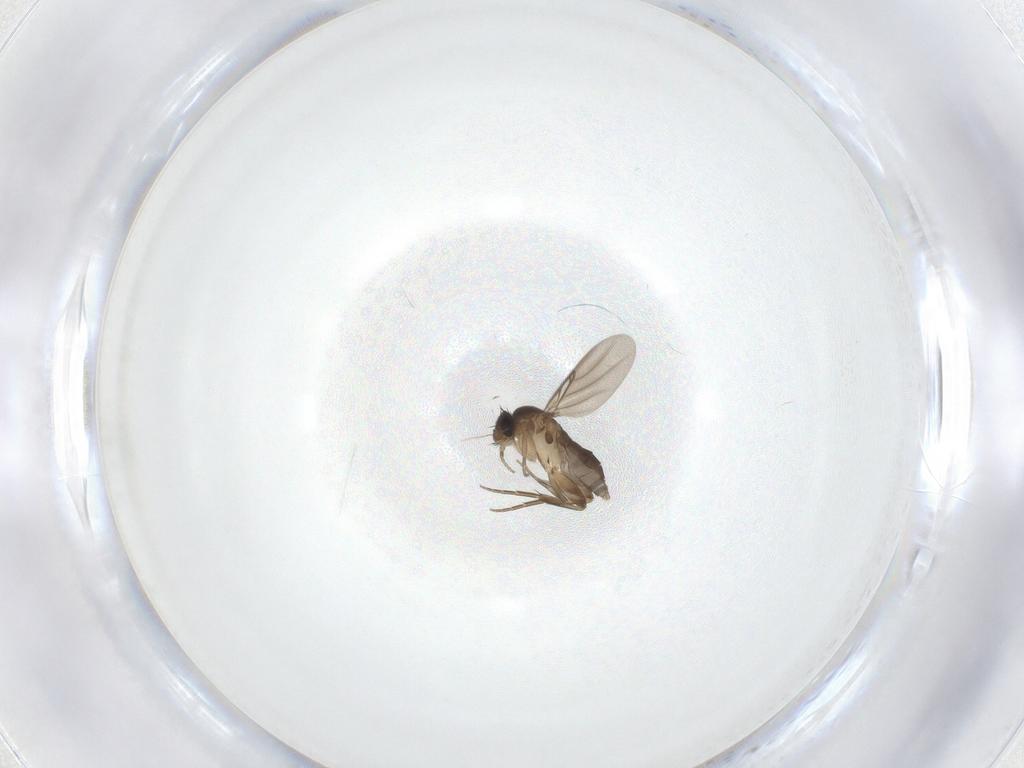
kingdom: Animalia
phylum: Arthropoda
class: Insecta
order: Diptera
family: Phoridae
